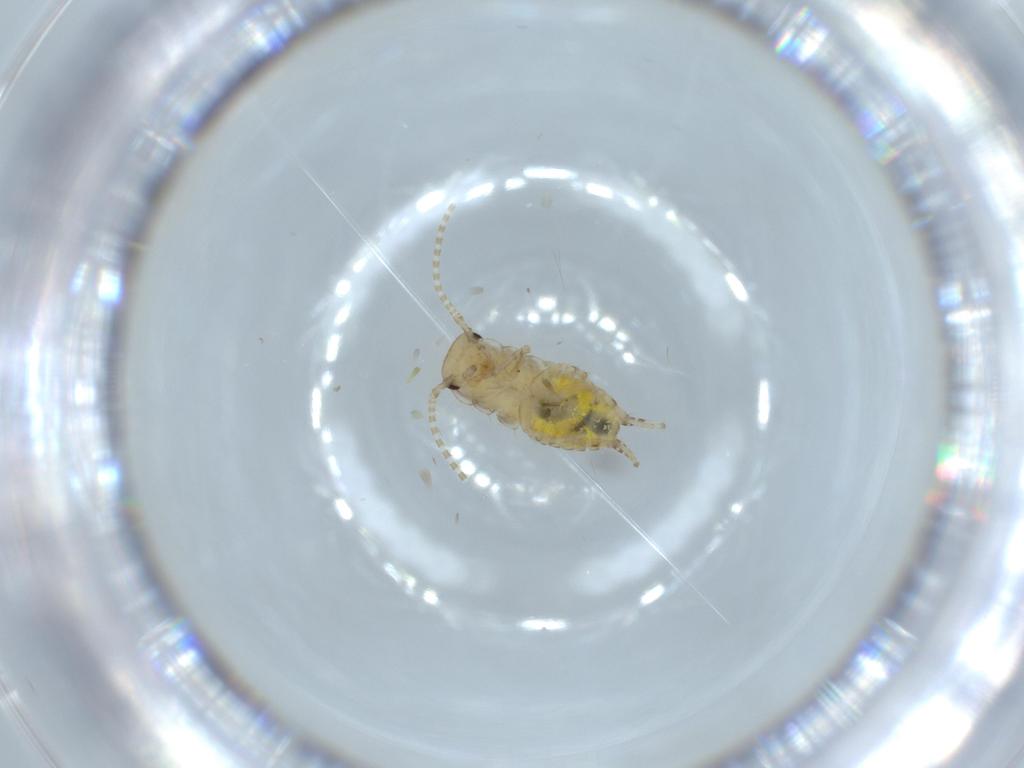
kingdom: Animalia
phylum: Arthropoda
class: Insecta
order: Blattodea
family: Ectobiidae
